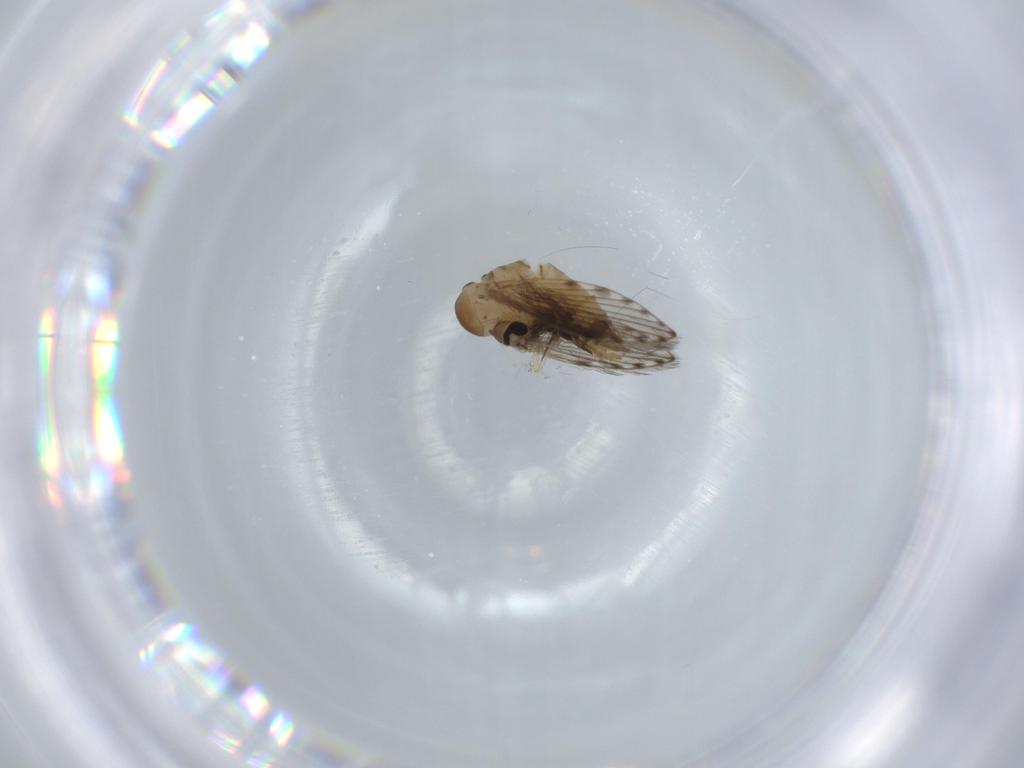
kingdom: Animalia
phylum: Arthropoda
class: Insecta
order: Diptera
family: Psychodidae
